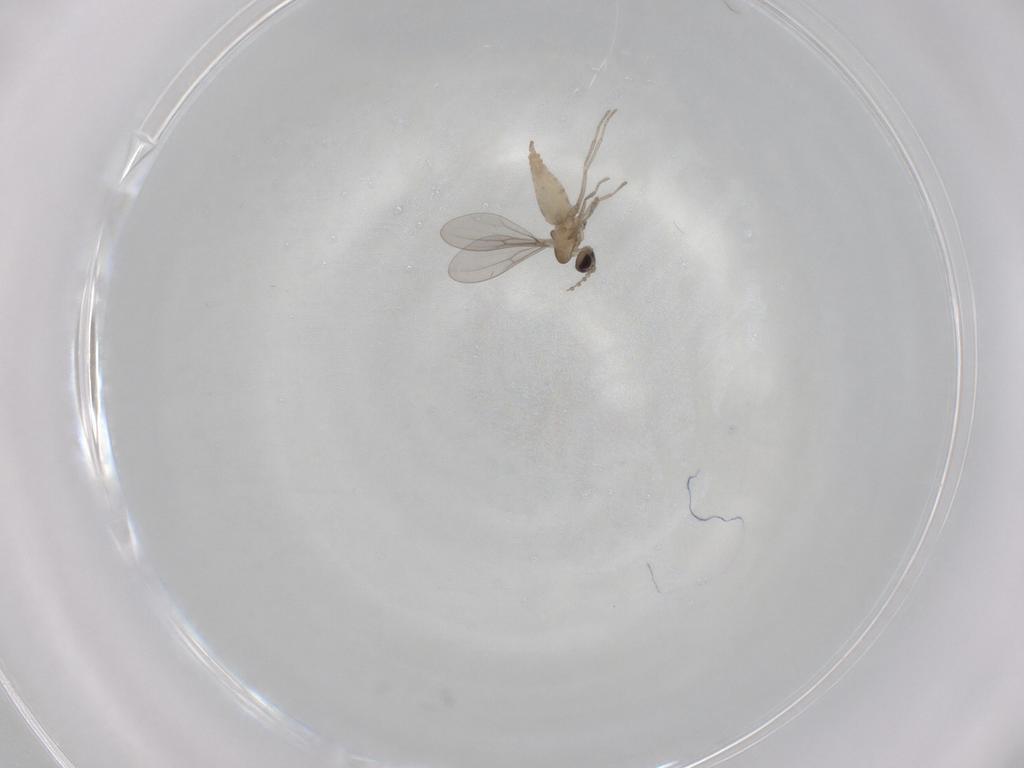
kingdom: Animalia
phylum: Arthropoda
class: Insecta
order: Diptera
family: Cecidomyiidae
